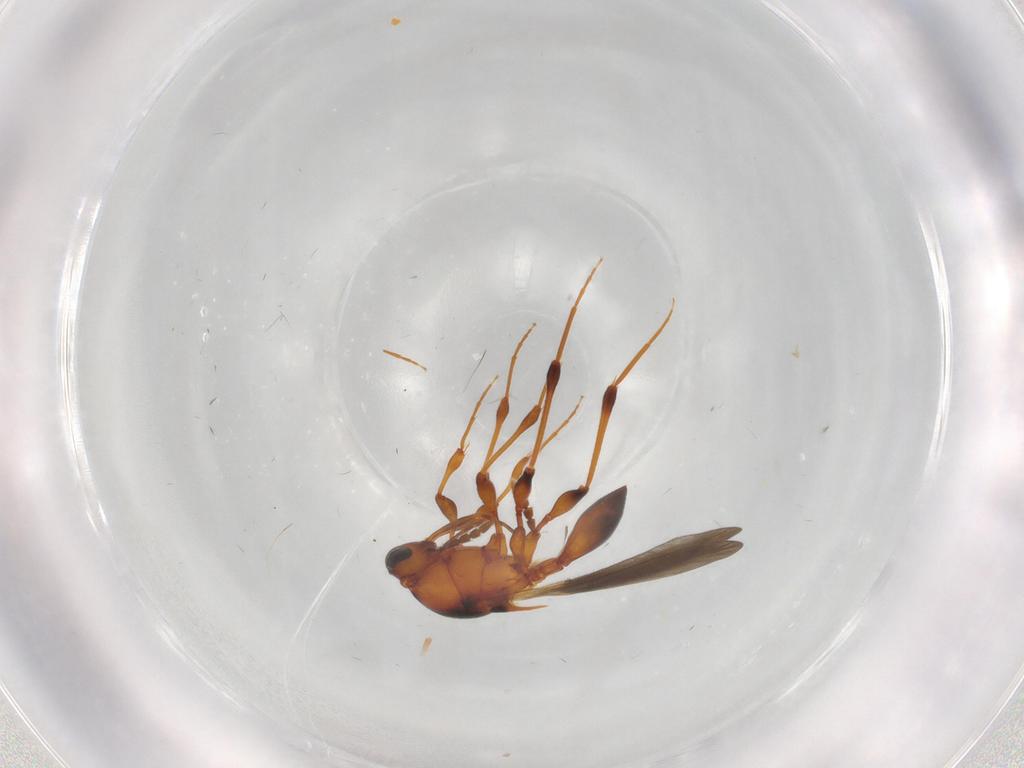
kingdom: Animalia
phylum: Arthropoda
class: Insecta
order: Hymenoptera
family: Platygastridae
